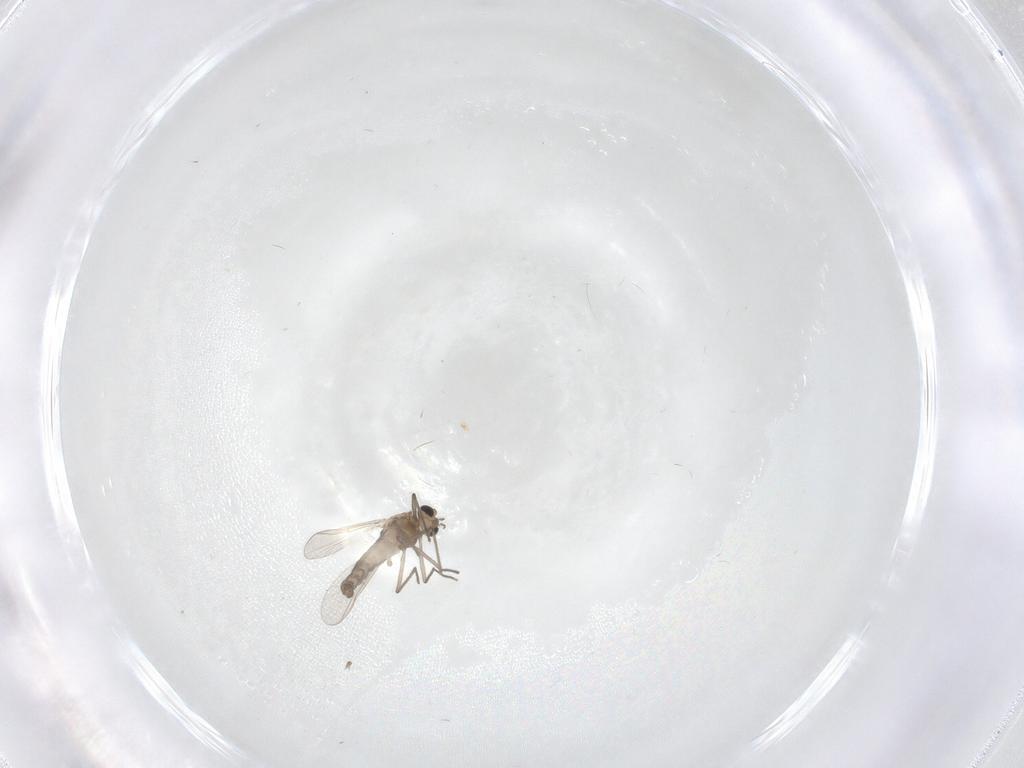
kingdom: Animalia
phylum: Arthropoda
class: Insecta
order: Diptera
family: Chironomidae
